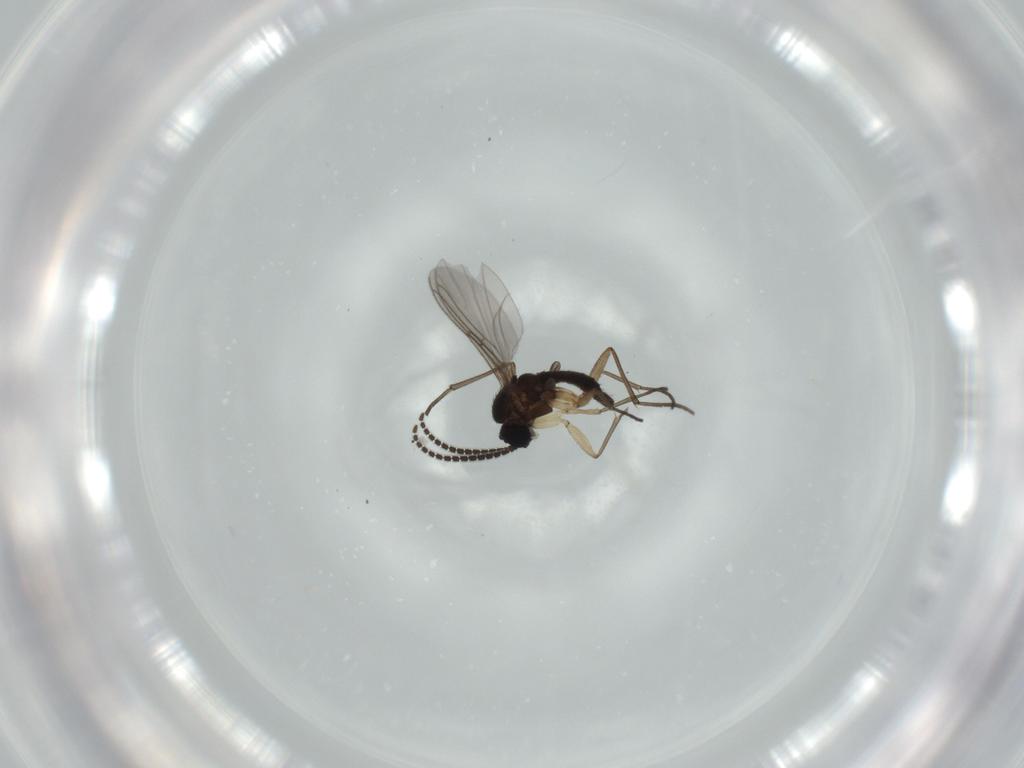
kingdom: Animalia
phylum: Arthropoda
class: Insecta
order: Diptera
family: Sciaridae
